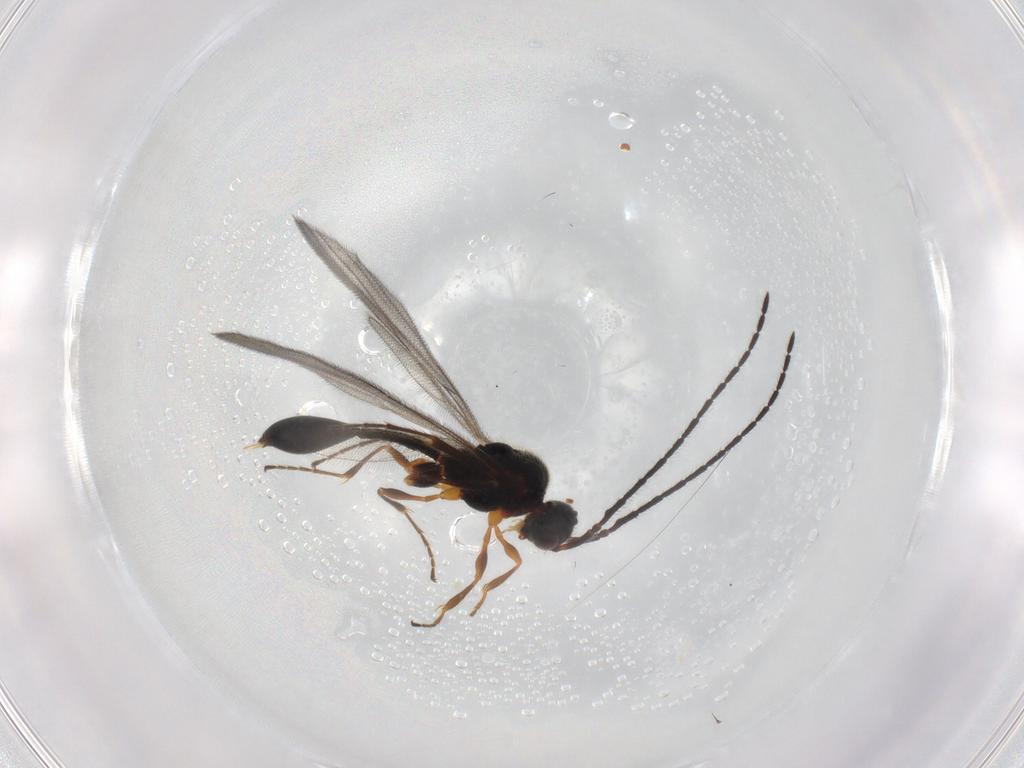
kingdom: Animalia
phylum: Arthropoda
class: Insecta
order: Hymenoptera
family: Diapriidae
